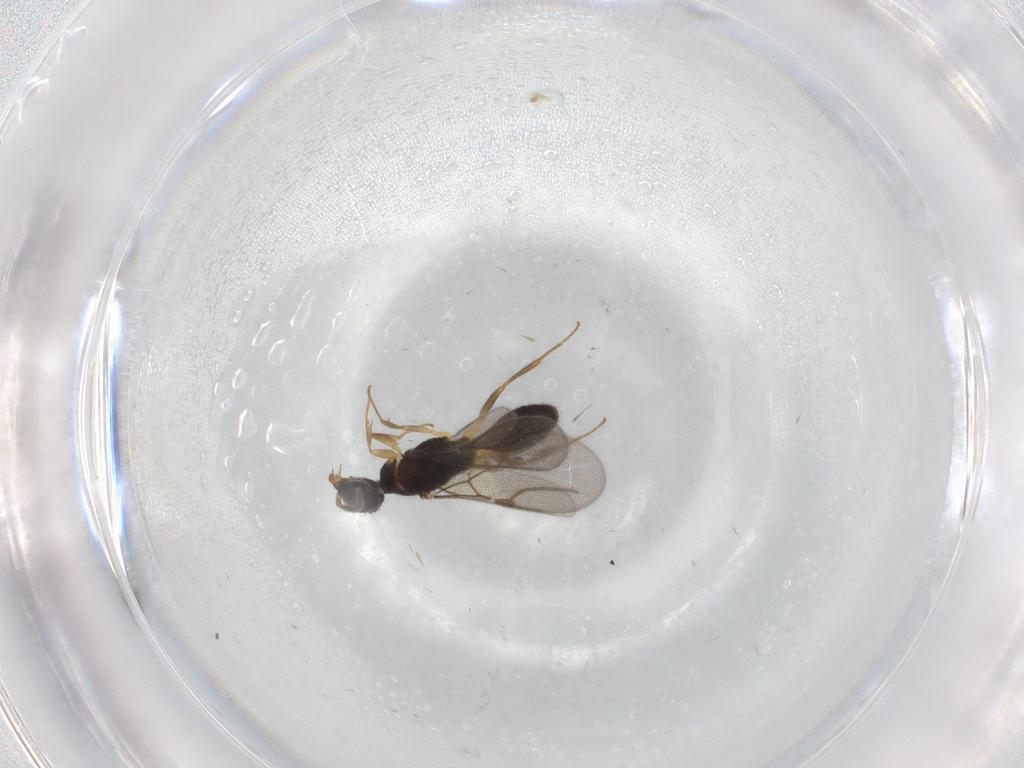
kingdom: Animalia
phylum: Arthropoda
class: Insecta
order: Hymenoptera
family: Bethylidae
